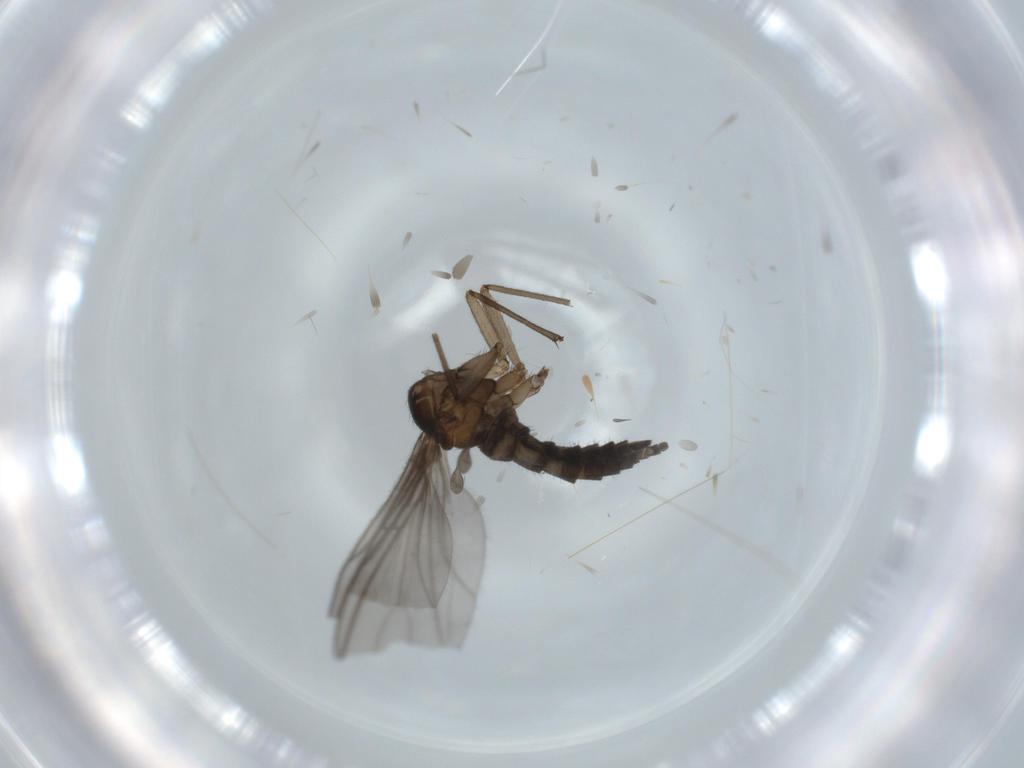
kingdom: Animalia
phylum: Arthropoda
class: Insecta
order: Diptera
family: Sciaridae
